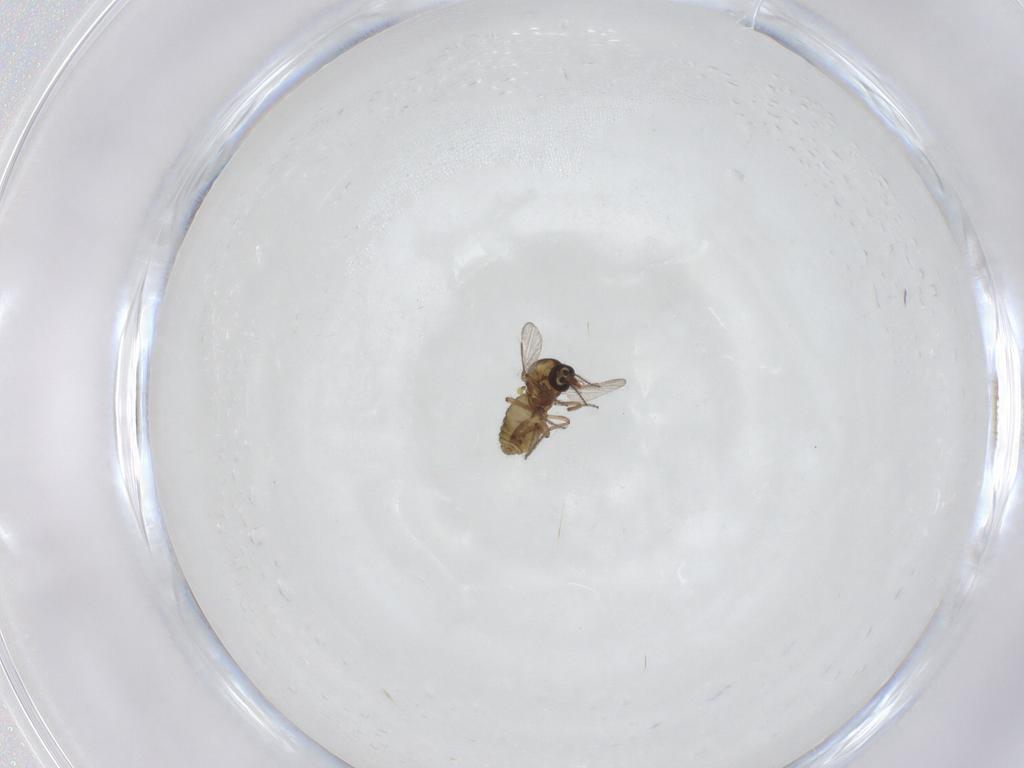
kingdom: Animalia
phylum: Arthropoda
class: Insecta
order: Diptera
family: Ceratopogonidae
